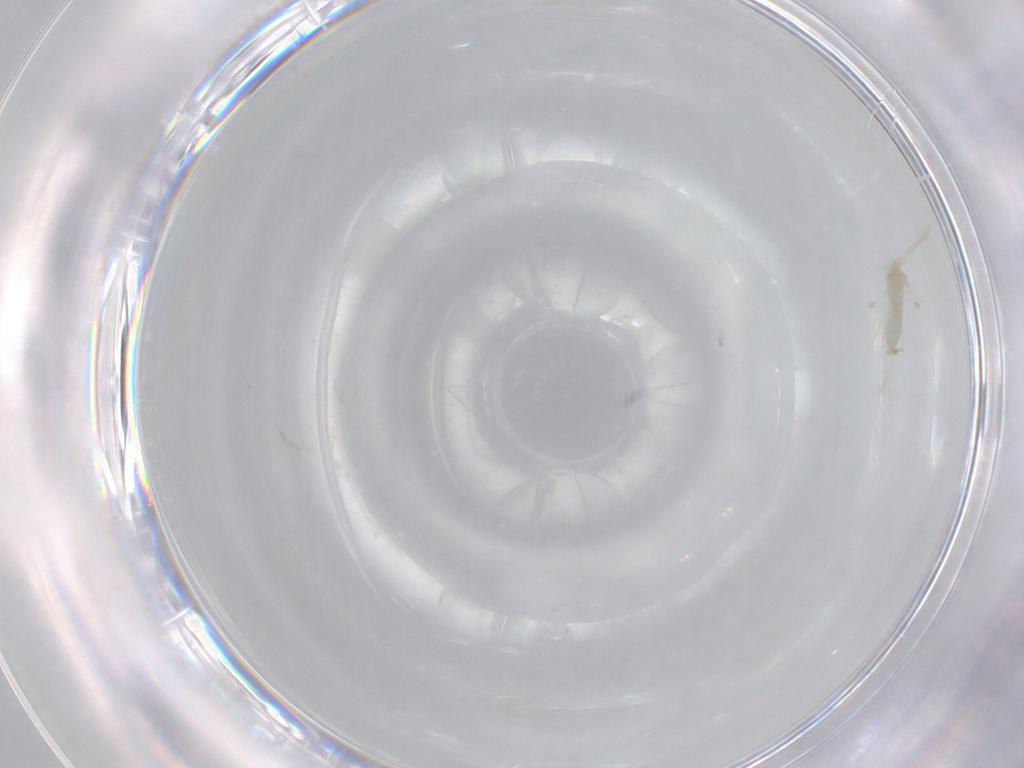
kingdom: Animalia
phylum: Arthropoda
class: Insecta
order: Diptera
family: Cecidomyiidae
